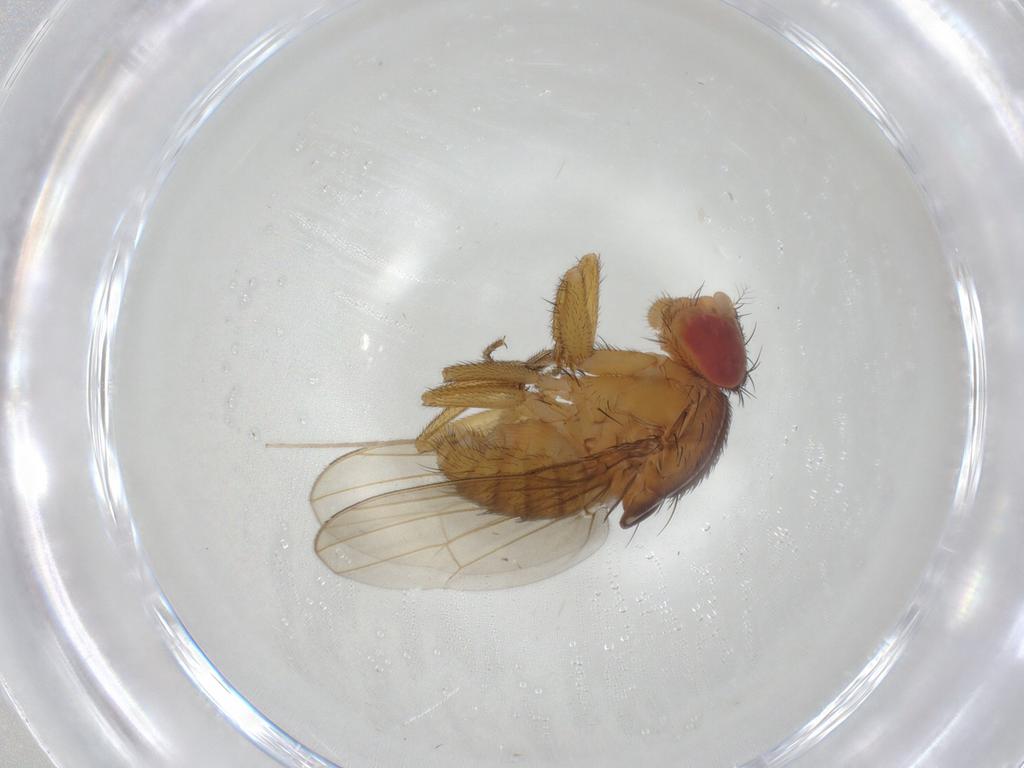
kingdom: Animalia
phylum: Arthropoda
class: Insecta
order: Diptera
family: Drosophilidae
